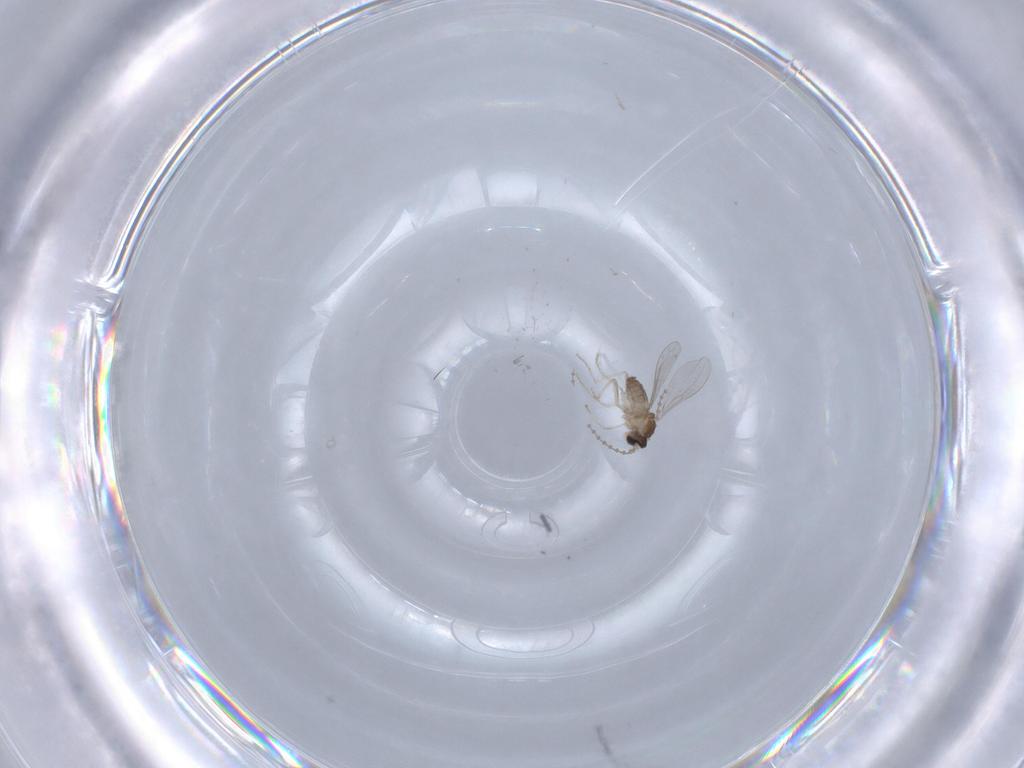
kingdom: Animalia
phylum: Arthropoda
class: Insecta
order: Diptera
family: Cecidomyiidae
